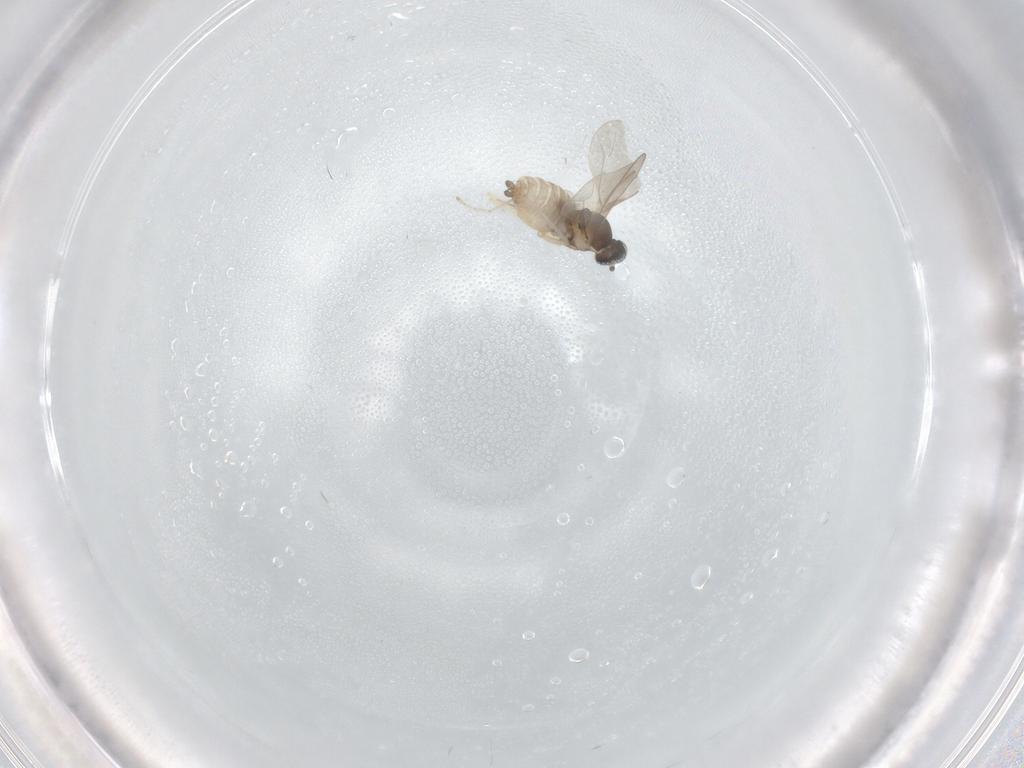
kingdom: Animalia
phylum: Arthropoda
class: Insecta
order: Diptera
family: Cecidomyiidae
